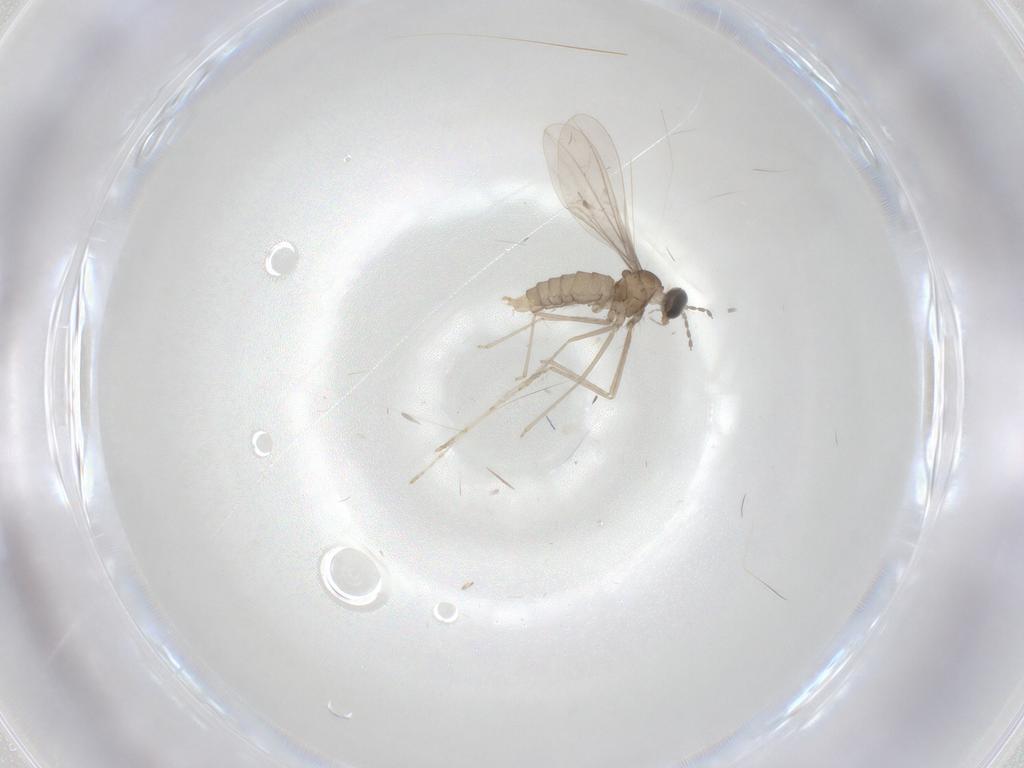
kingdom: Animalia
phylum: Arthropoda
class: Insecta
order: Diptera
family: Cecidomyiidae
